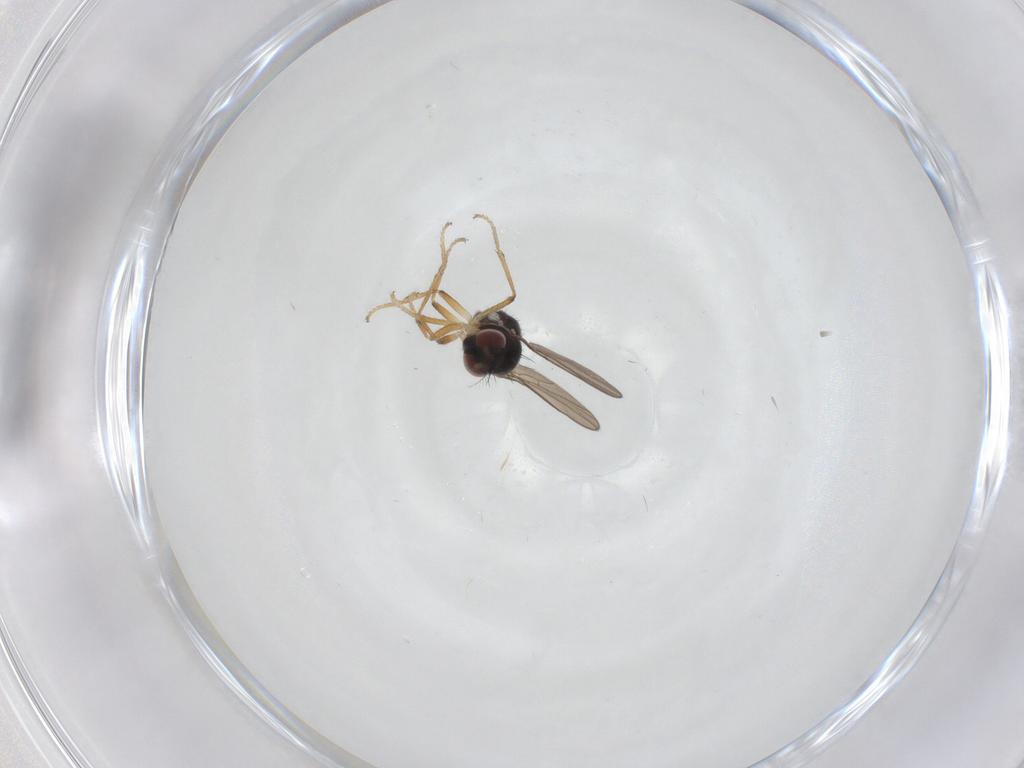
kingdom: Animalia
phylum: Arthropoda
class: Insecta
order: Diptera
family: Ephydridae
